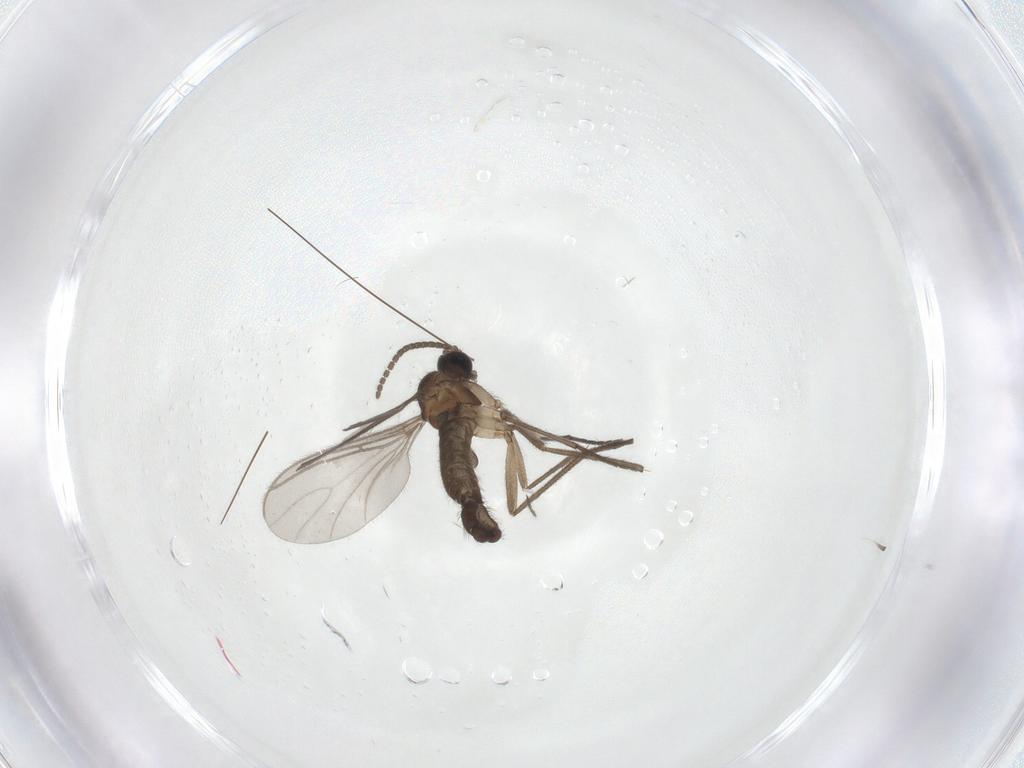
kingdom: Animalia
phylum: Arthropoda
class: Insecta
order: Diptera
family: Sciaridae
